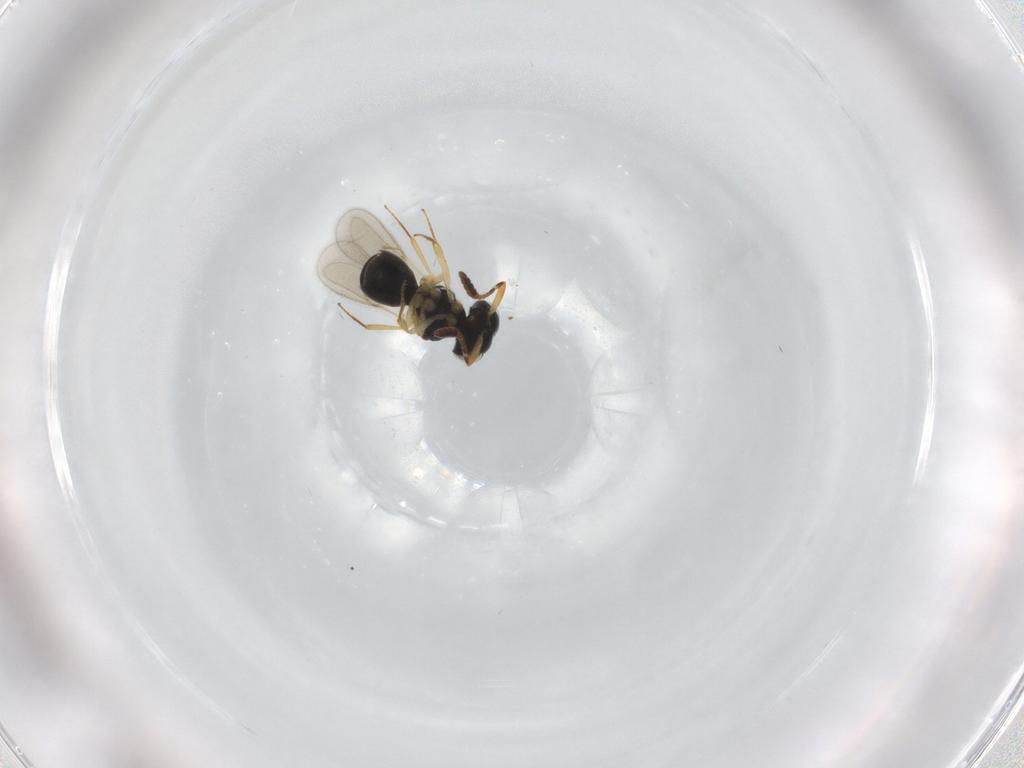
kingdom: Animalia
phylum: Arthropoda
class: Insecta
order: Hymenoptera
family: Scelionidae
